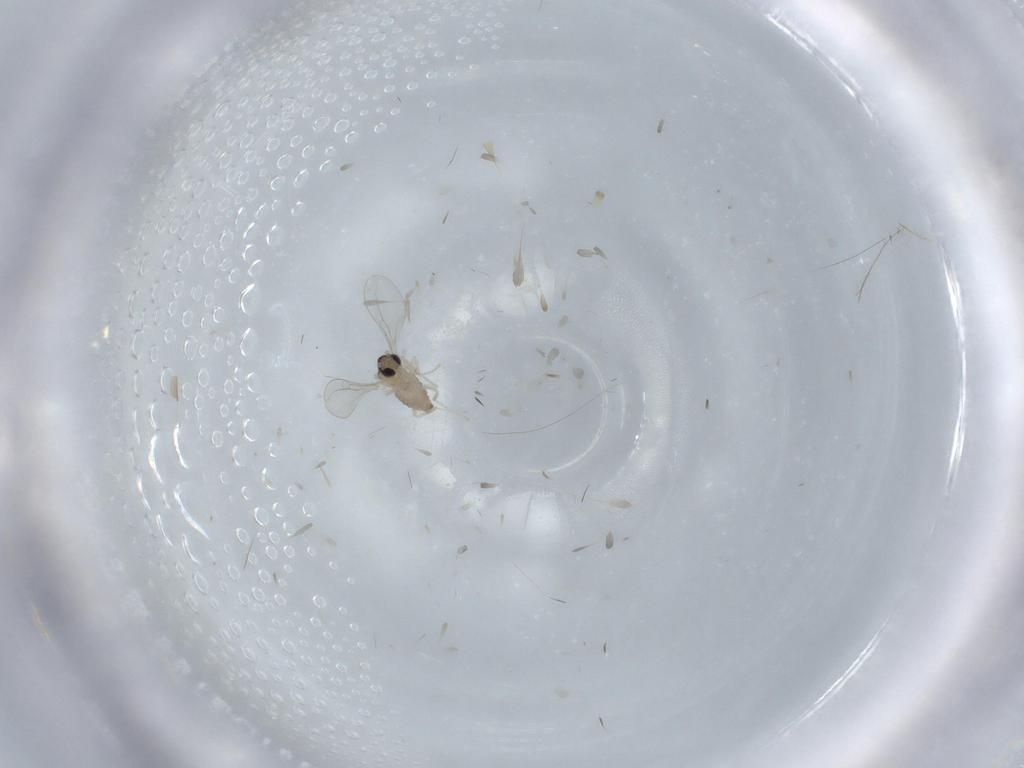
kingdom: Animalia
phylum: Arthropoda
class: Insecta
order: Diptera
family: Cecidomyiidae
